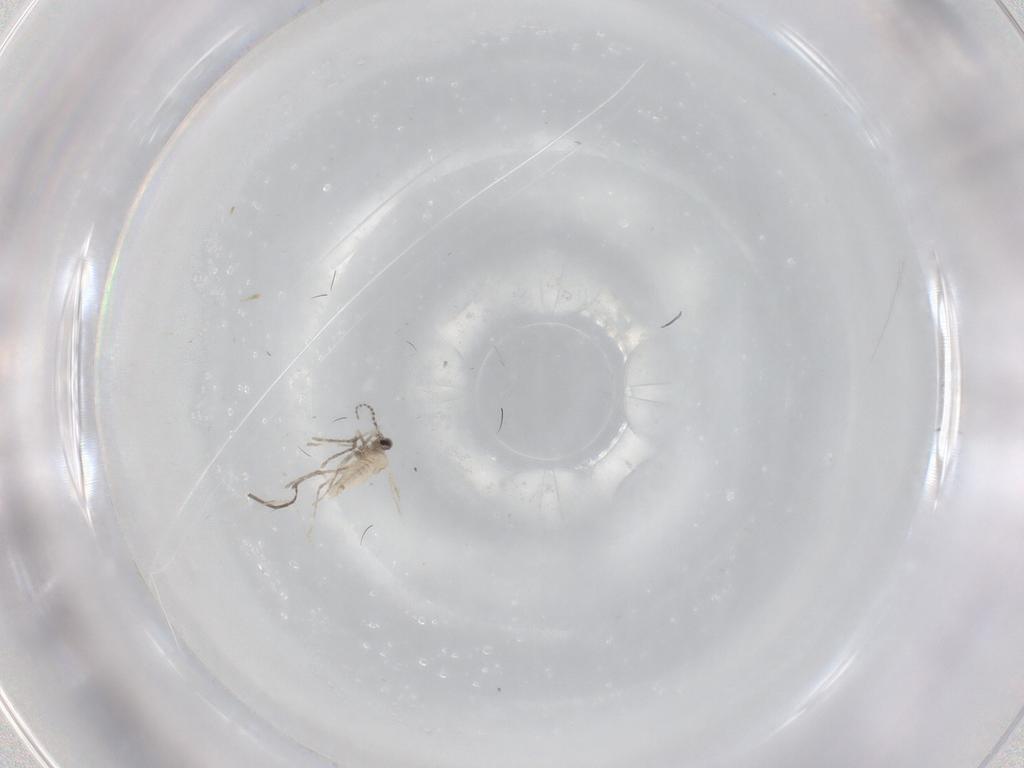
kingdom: Animalia
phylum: Arthropoda
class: Insecta
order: Diptera
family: Cecidomyiidae
